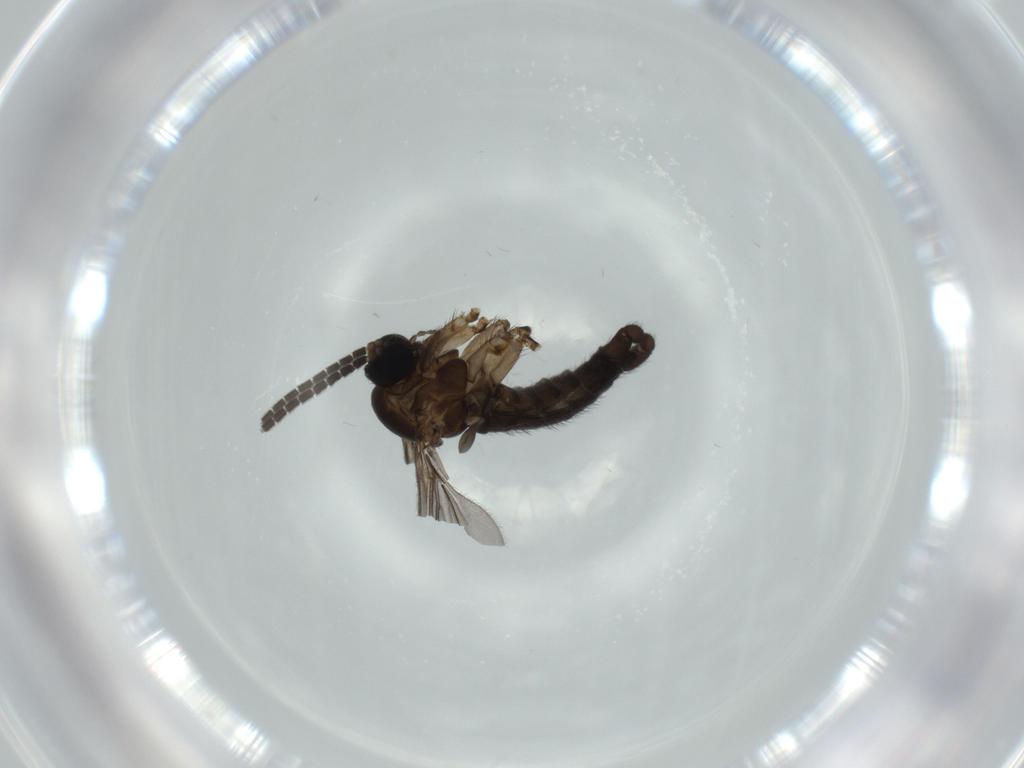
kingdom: Animalia
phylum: Arthropoda
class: Insecta
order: Diptera
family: Sciaridae
